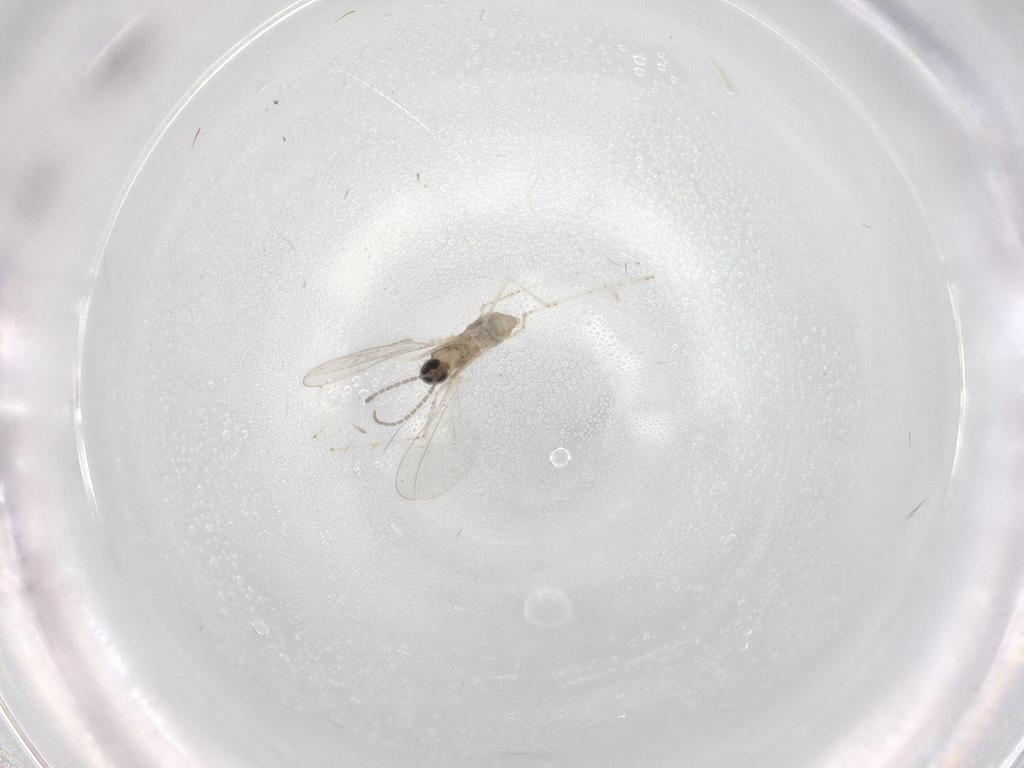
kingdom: Animalia
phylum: Arthropoda
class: Insecta
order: Diptera
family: Cecidomyiidae
